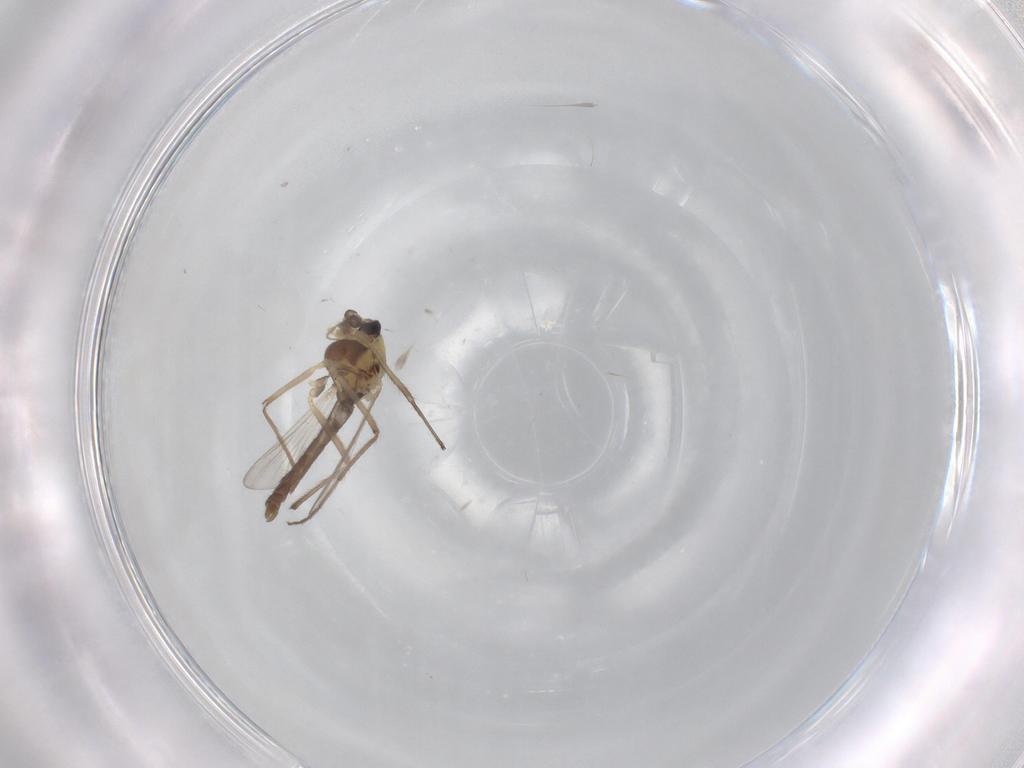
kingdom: Animalia
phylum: Arthropoda
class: Insecta
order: Diptera
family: Chironomidae
